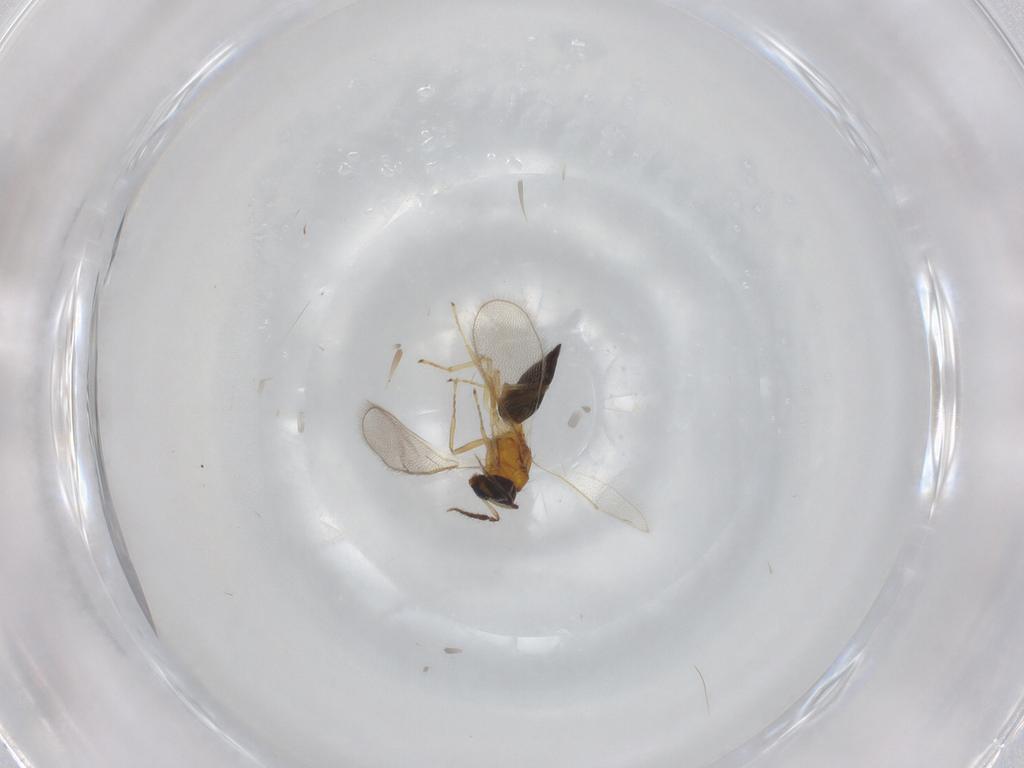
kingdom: Animalia
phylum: Arthropoda
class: Insecta
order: Hymenoptera
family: Eulophidae
